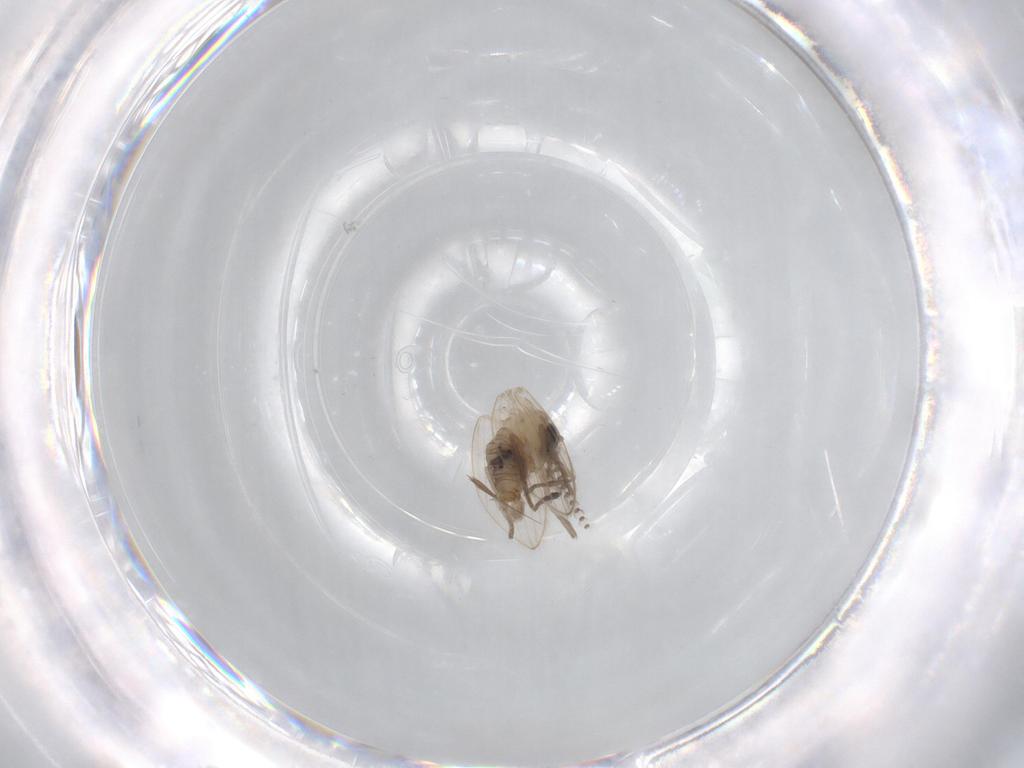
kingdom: Animalia
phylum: Arthropoda
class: Insecta
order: Diptera
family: Psychodidae
